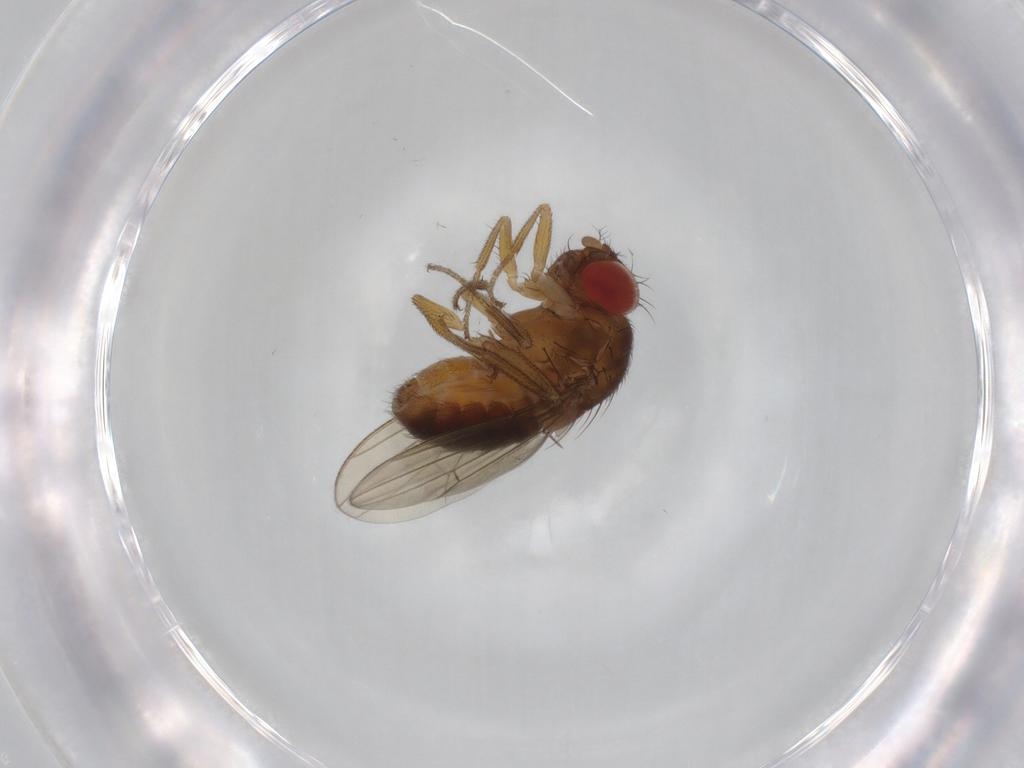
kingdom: Animalia
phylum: Arthropoda
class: Insecta
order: Diptera
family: Drosophilidae
